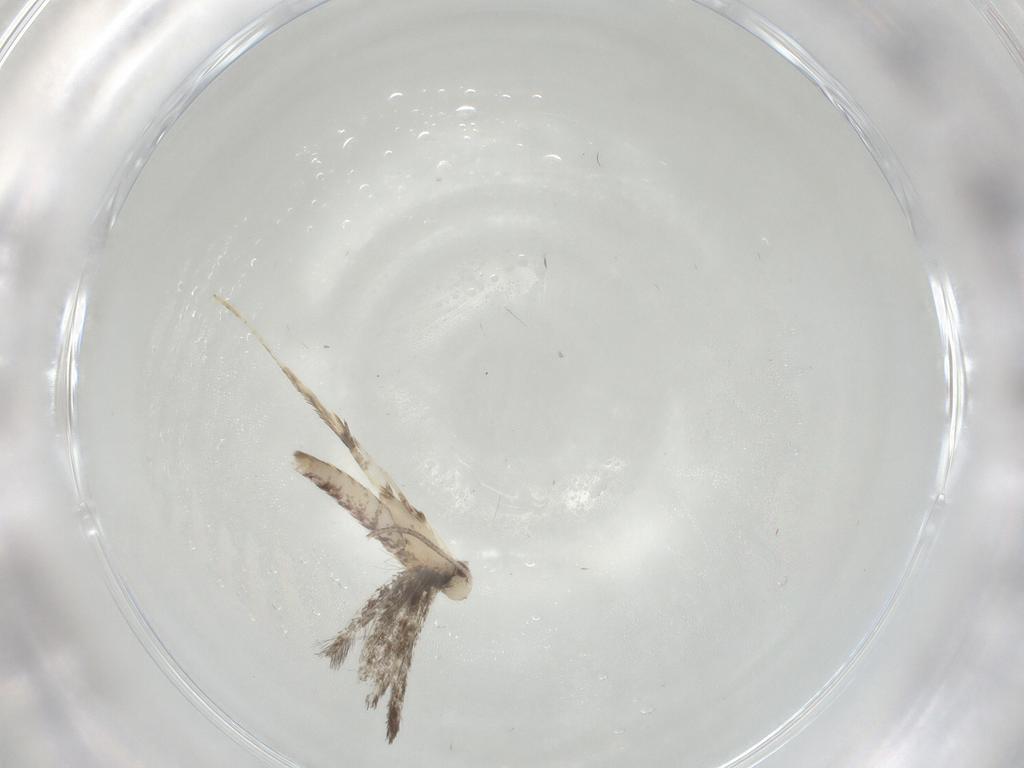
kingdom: Animalia
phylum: Arthropoda
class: Insecta
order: Lepidoptera
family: Gracillariidae
